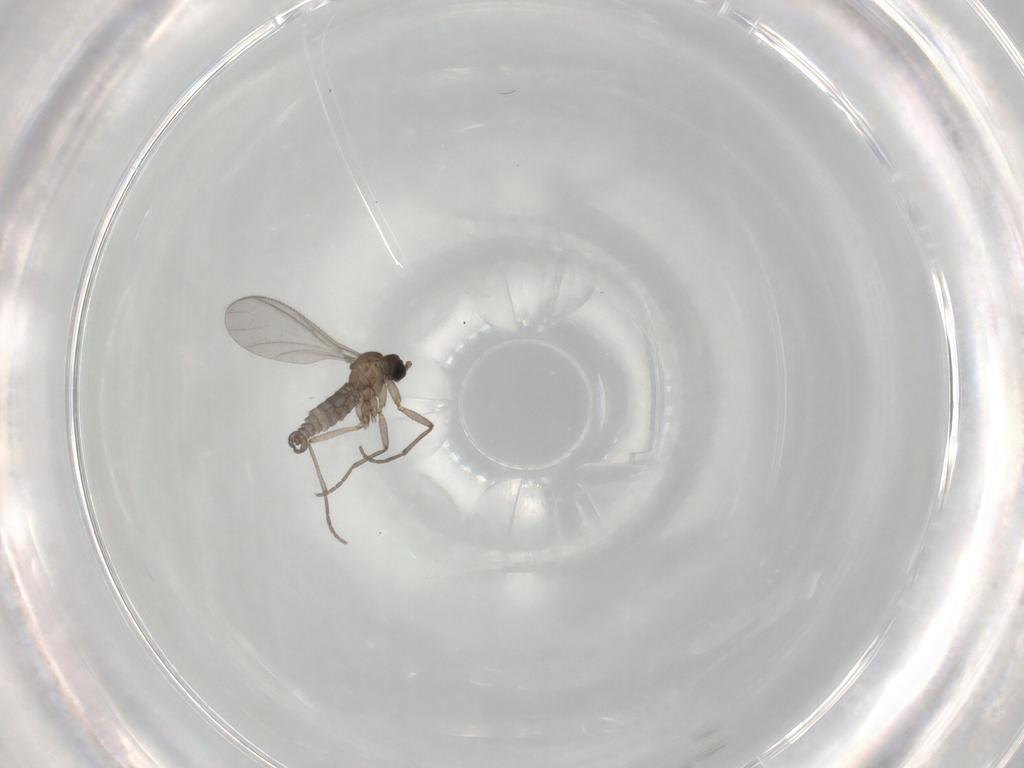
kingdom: Animalia
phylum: Arthropoda
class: Insecta
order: Diptera
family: Sciaridae
